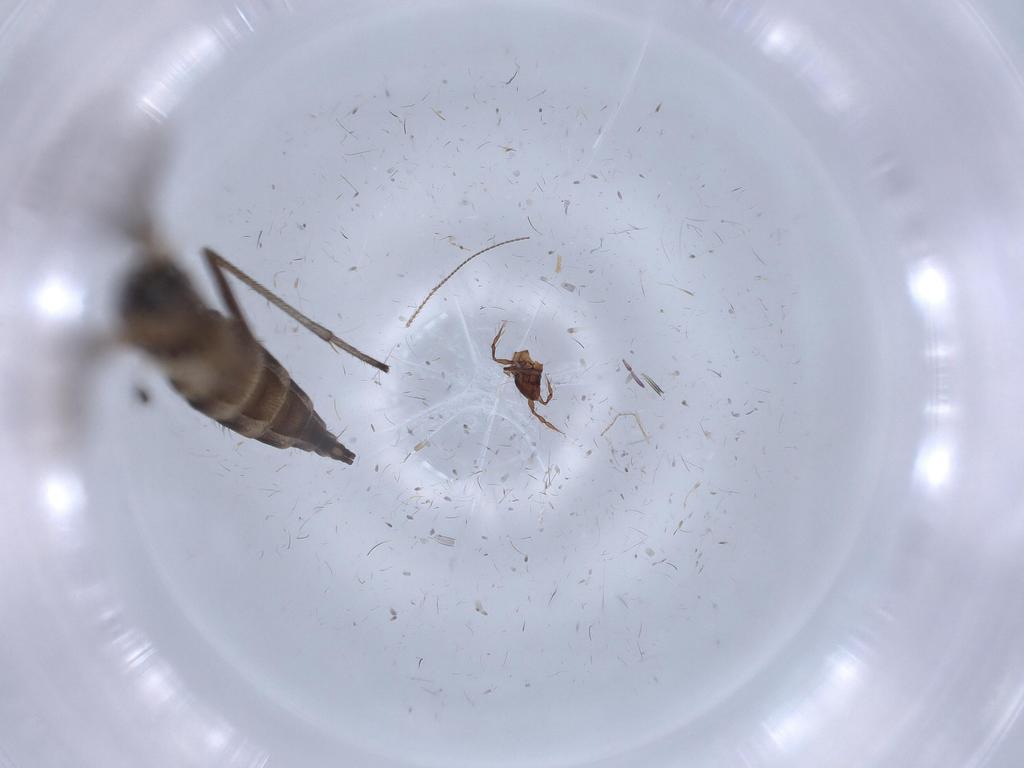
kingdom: Animalia
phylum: Arthropoda
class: Insecta
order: Diptera
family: Sciaridae
